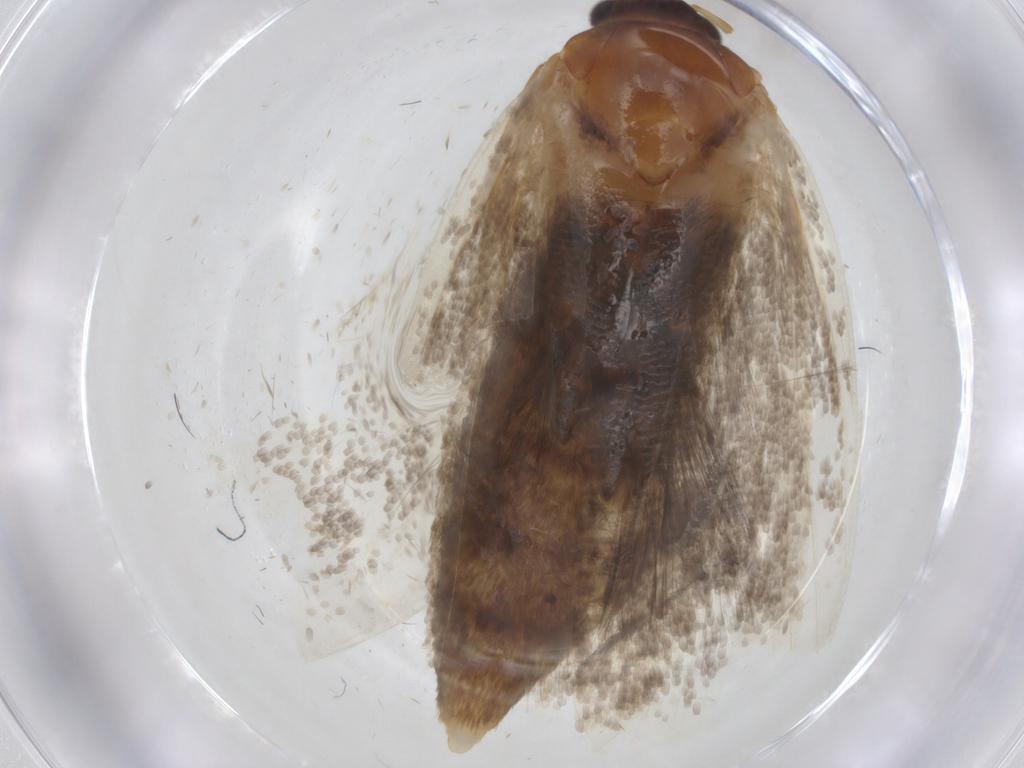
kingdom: Animalia
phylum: Arthropoda
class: Insecta
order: Lepidoptera
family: Oecophoridae
